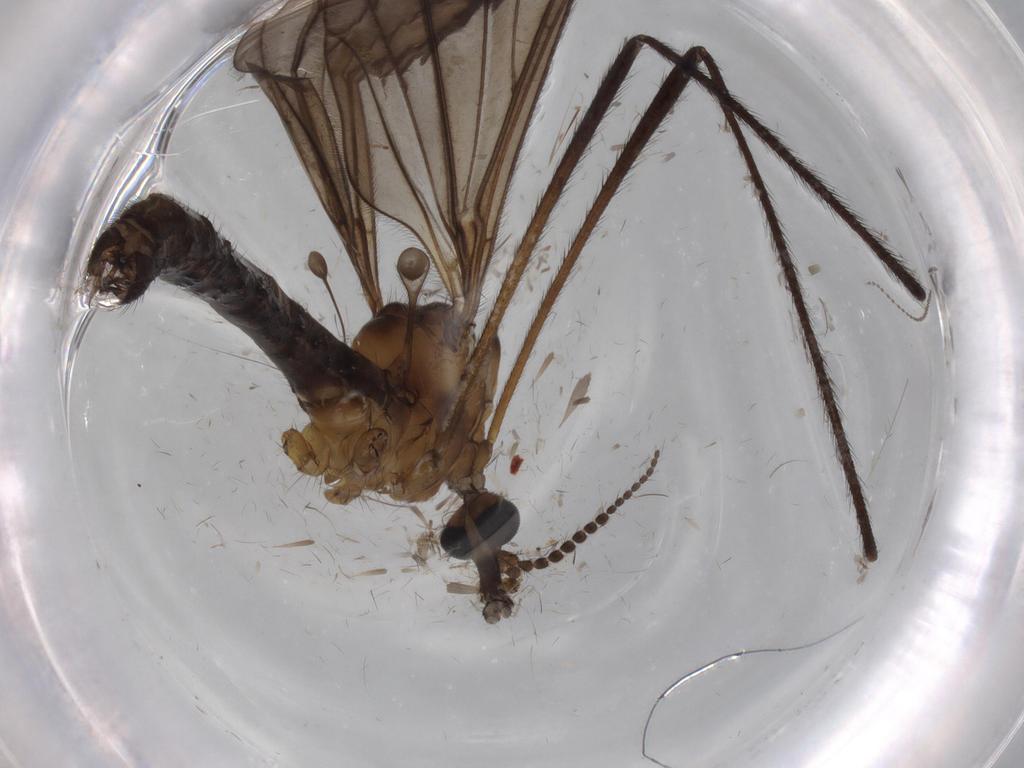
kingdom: Animalia
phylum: Arthropoda
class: Insecta
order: Diptera
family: Limoniidae
